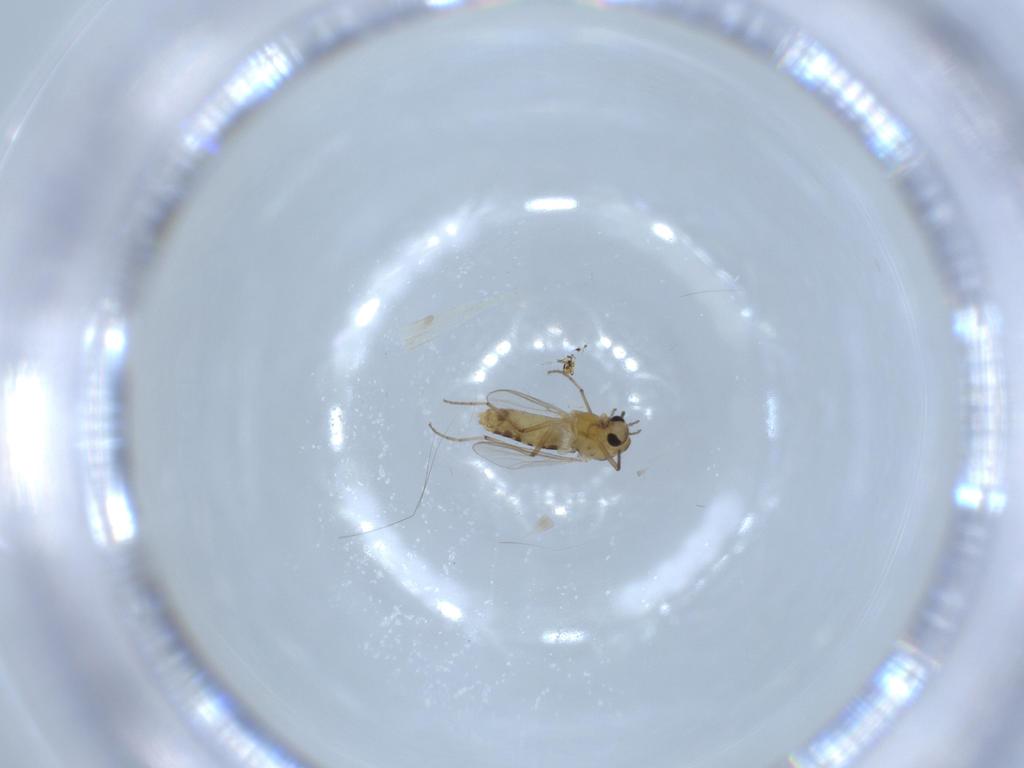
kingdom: Animalia
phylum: Arthropoda
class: Insecta
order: Diptera
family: Chironomidae
